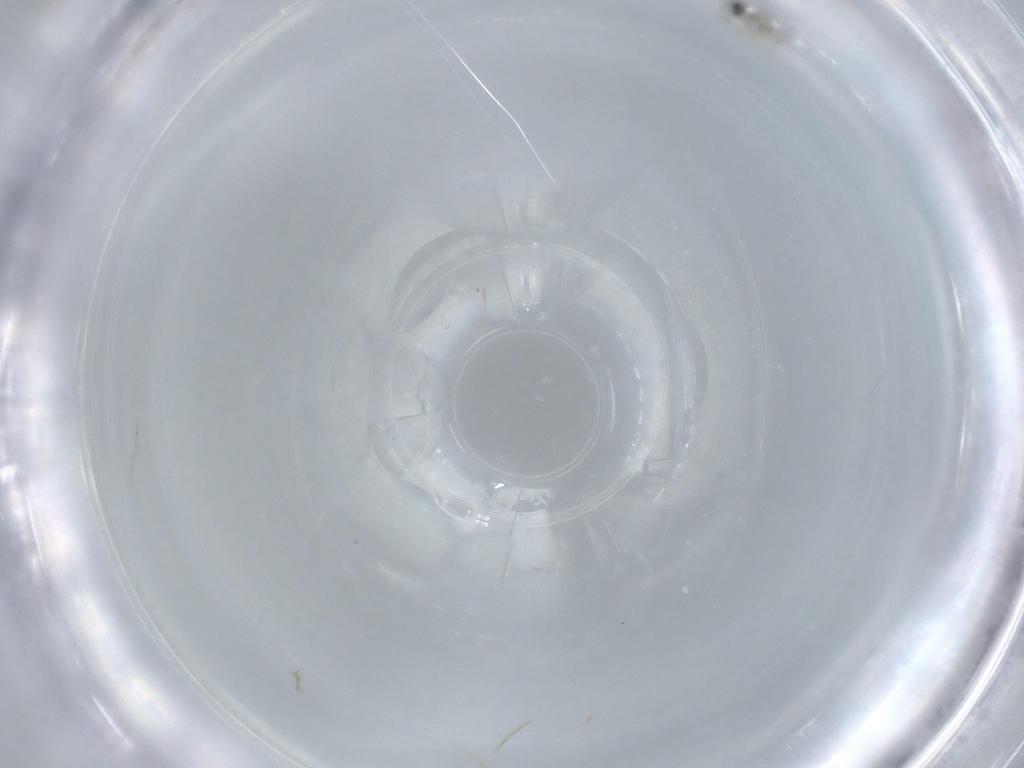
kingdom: Animalia
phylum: Arthropoda
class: Insecta
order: Diptera
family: Cecidomyiidae
